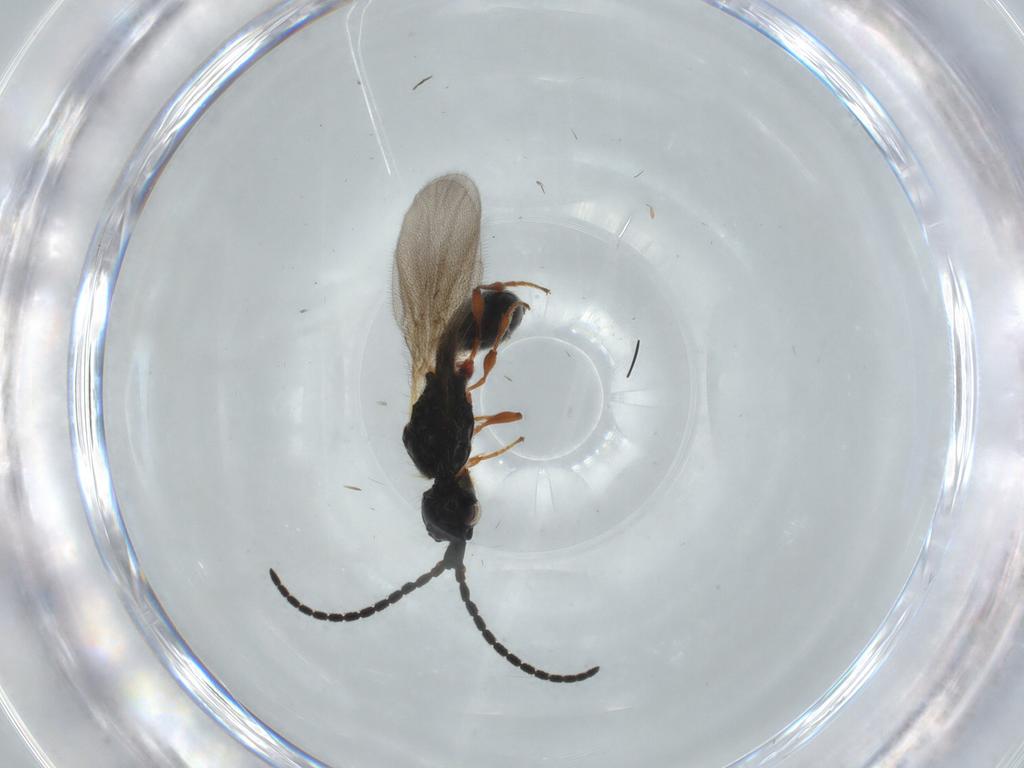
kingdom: Animalia
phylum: Arthropoda
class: Insecta
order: Hymenoptera
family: Diapriidae
